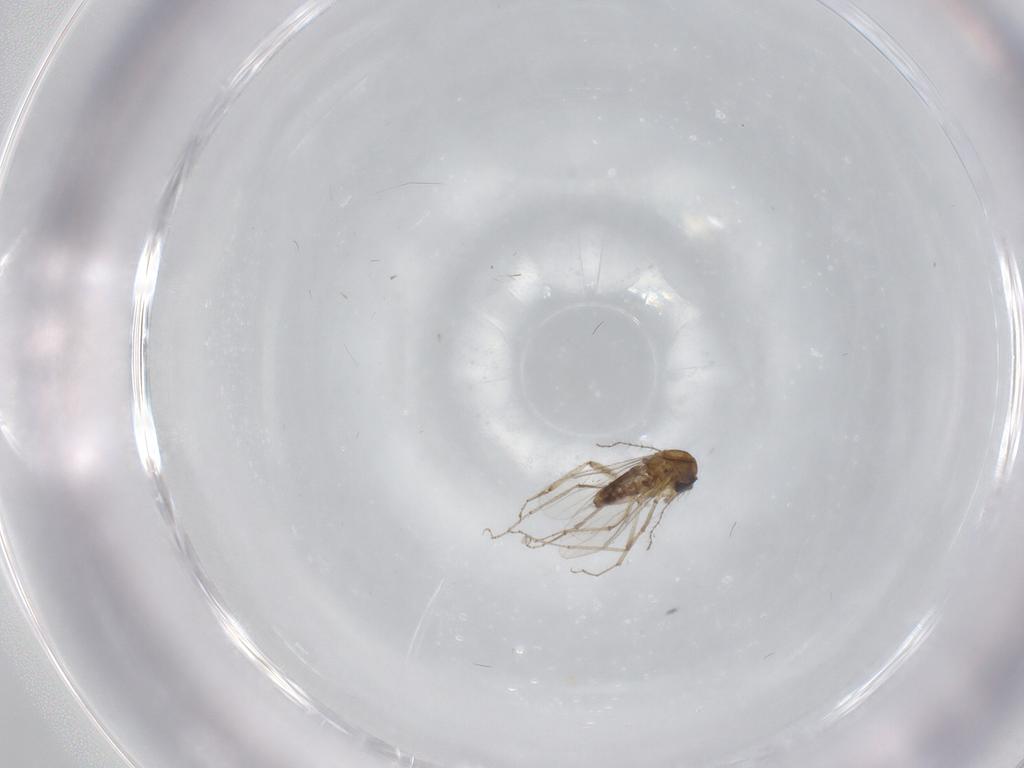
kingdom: Animalia
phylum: Arthropoda
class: Insecta
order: Diptera
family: Ceratopogonidae
